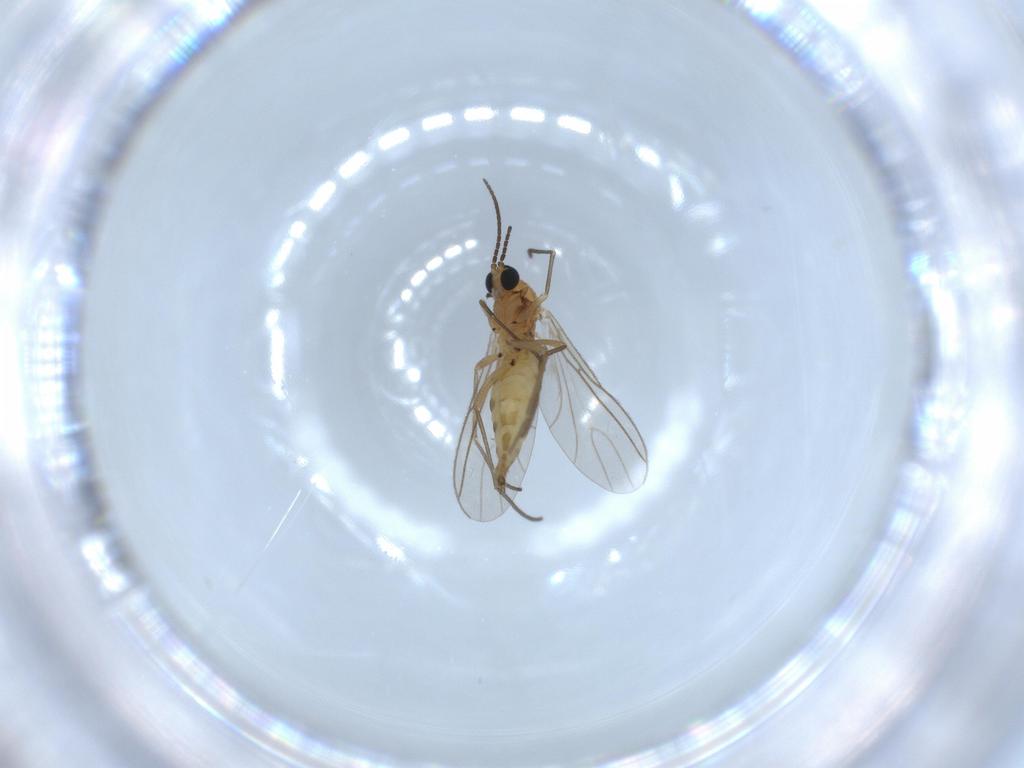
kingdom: Animalia
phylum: Arthropoda
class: Insecta
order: Diptera
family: Sciaridae
